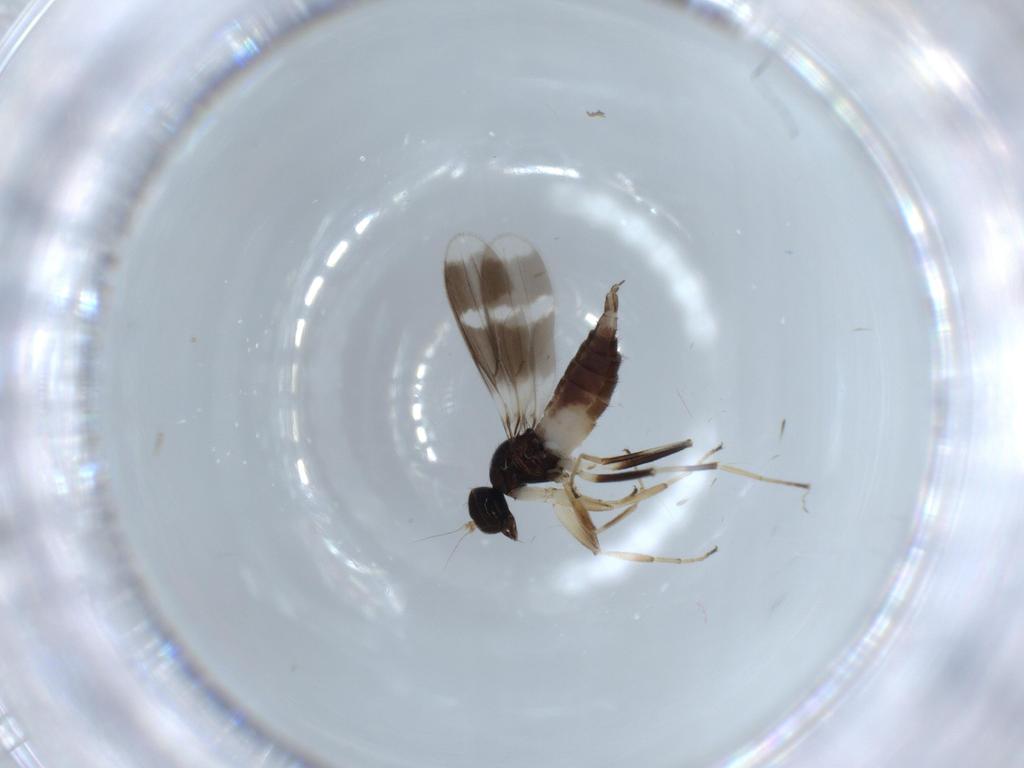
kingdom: Animalia
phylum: Arthropoda
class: Insecta
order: Diptera
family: Hybotidae
